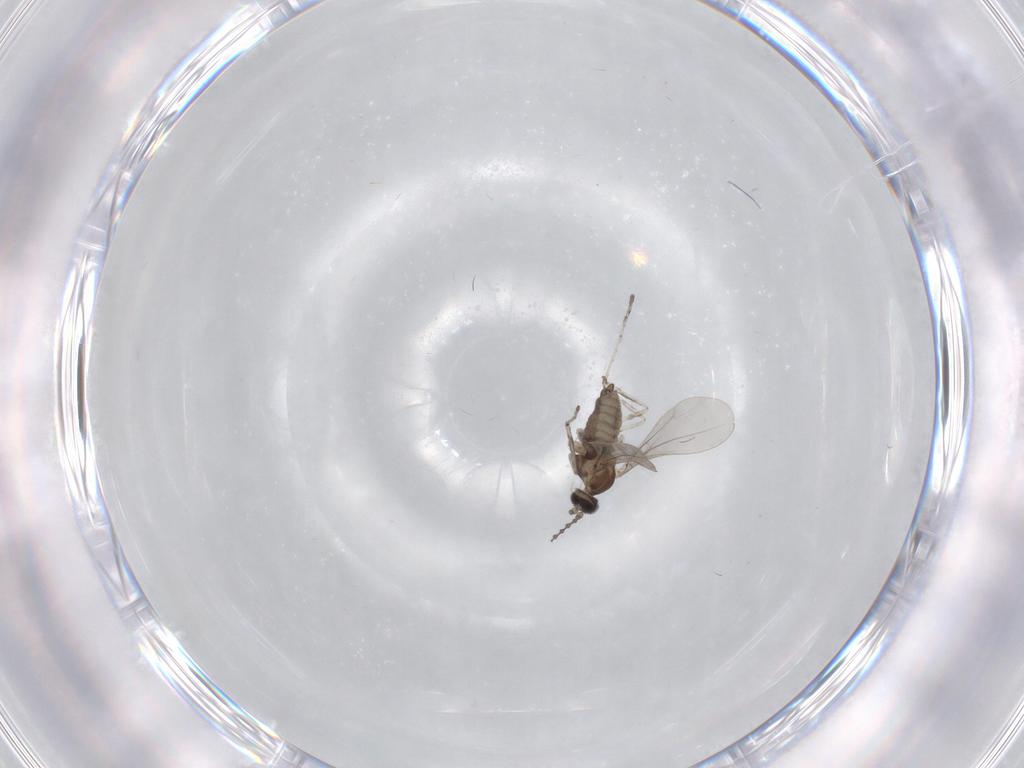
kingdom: Animalia
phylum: Arthropoda
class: Insecta
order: Diptera
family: Cecidomyiidae
